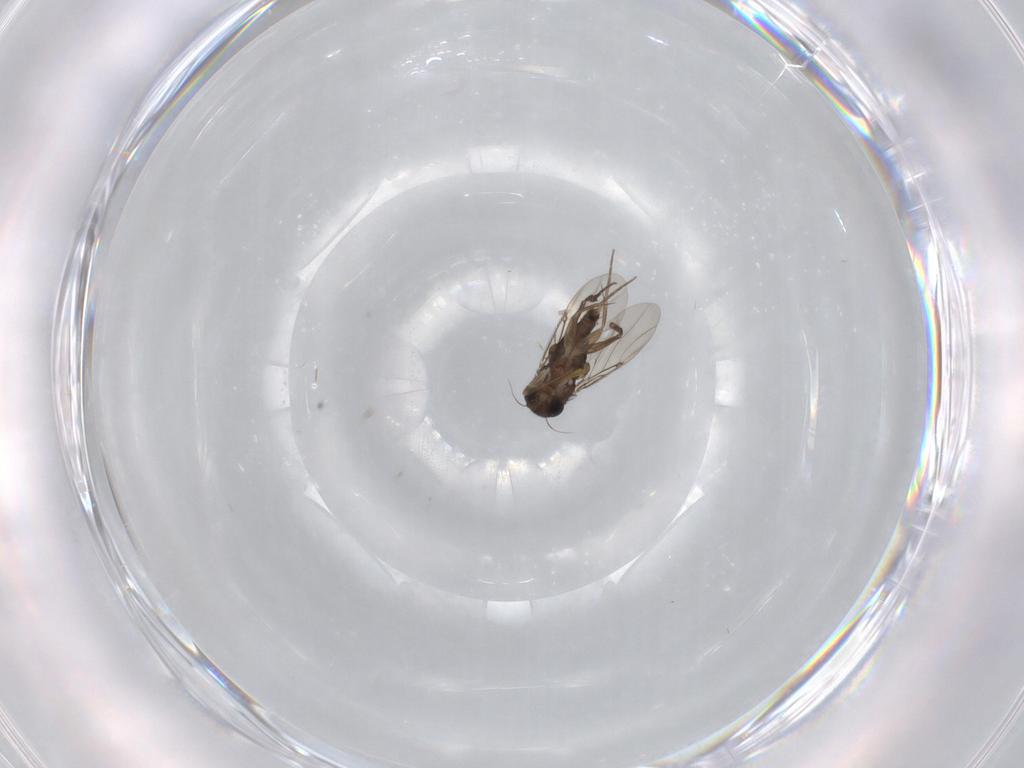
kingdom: Animalia
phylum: Arthropoda
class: Insecta
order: Diptera
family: Phoridae
